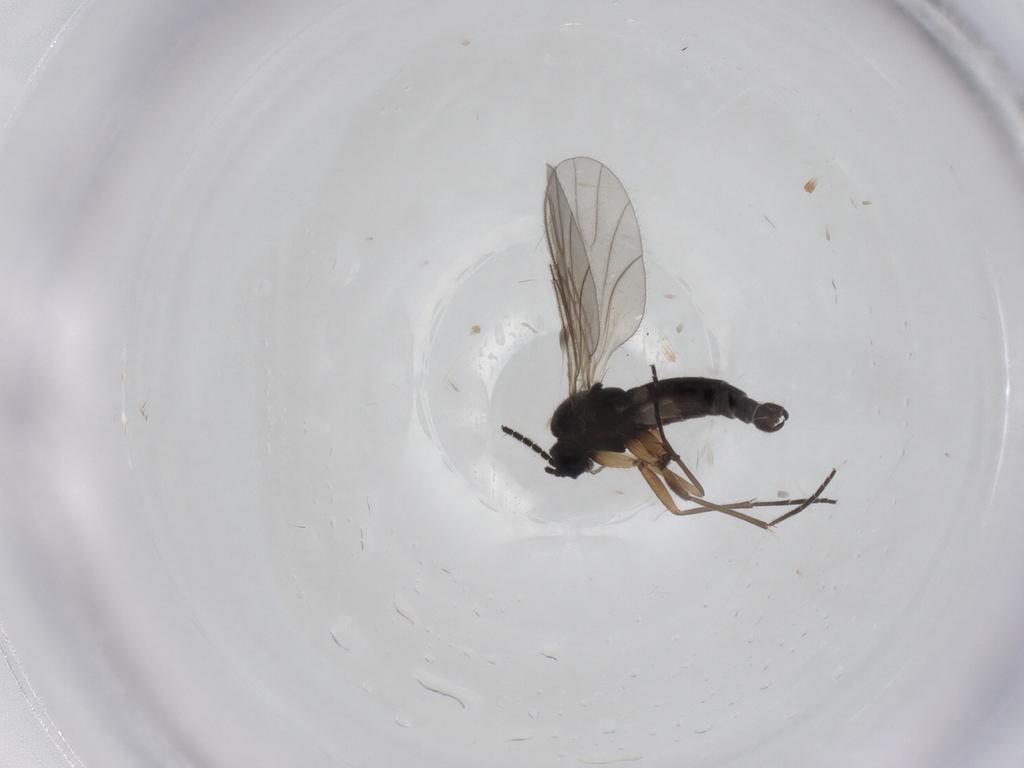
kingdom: Animalia
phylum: Arthropoda
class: Insecta
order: Diptera
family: Sciaridae
